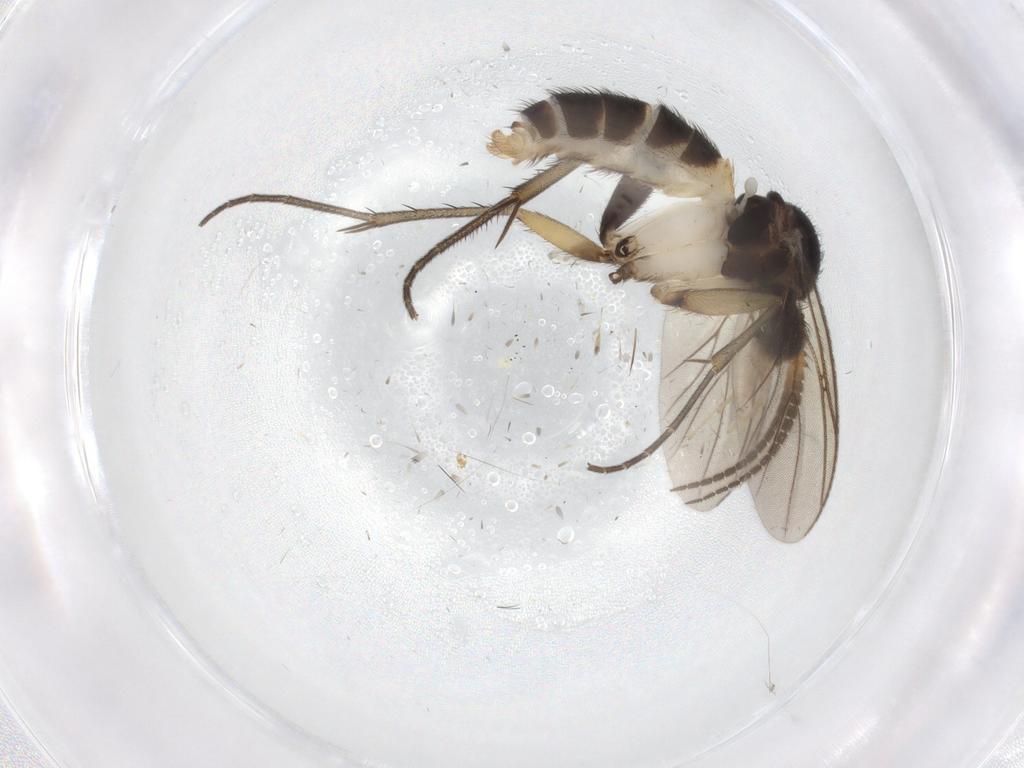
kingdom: Animalia
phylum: Arthropoda
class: Insecta
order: Diptera
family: Mycetophilidae
